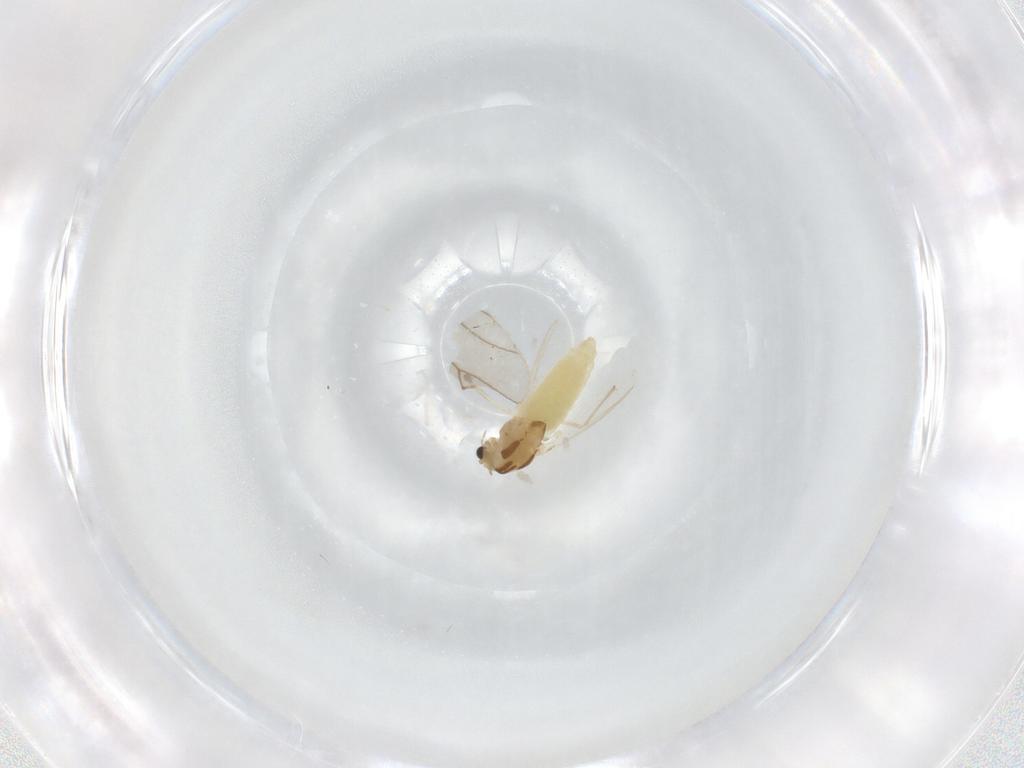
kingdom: Animalia
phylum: Arthropoda
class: Insecta
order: Diptera
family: Chironomidae
